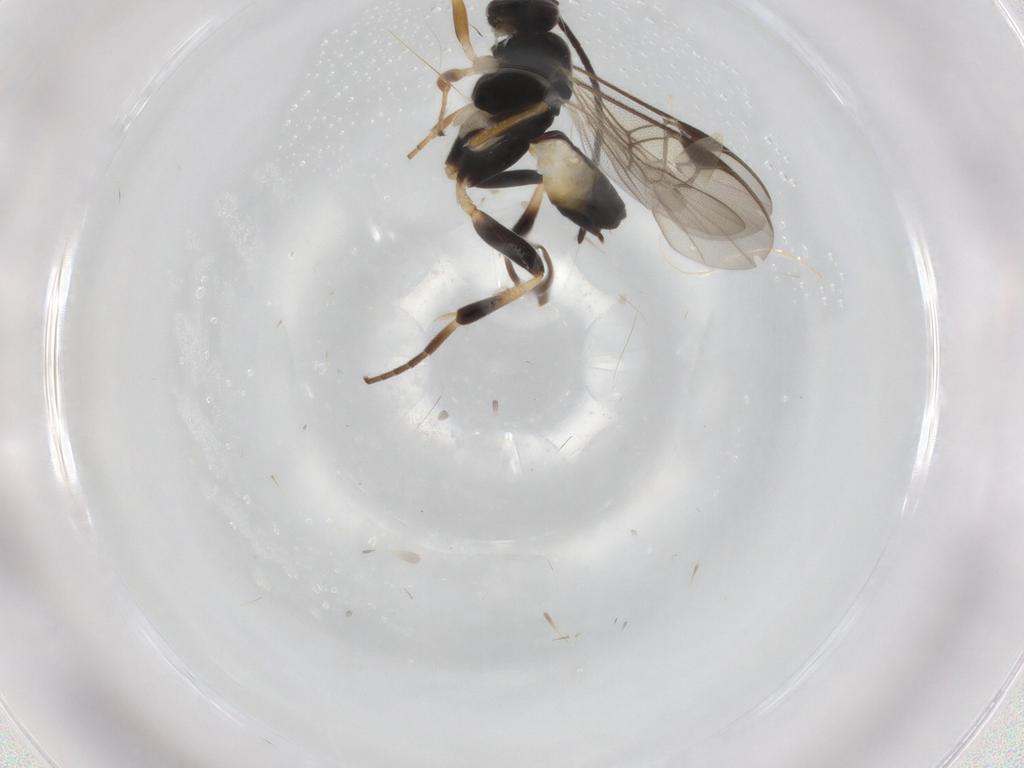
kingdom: Animalia
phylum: Arthropoda
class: Insecta
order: Hymenoptera
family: Braconidae
